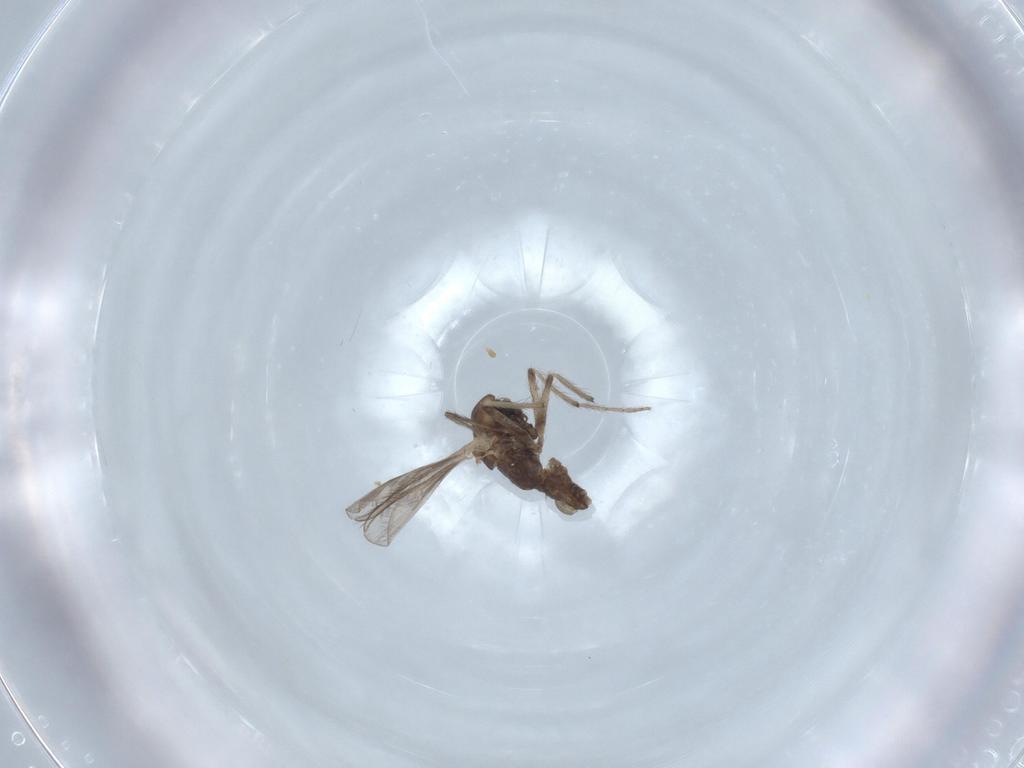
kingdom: Animalia
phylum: Arthropoda
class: Insecta
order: Diptera
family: Chironomidae
